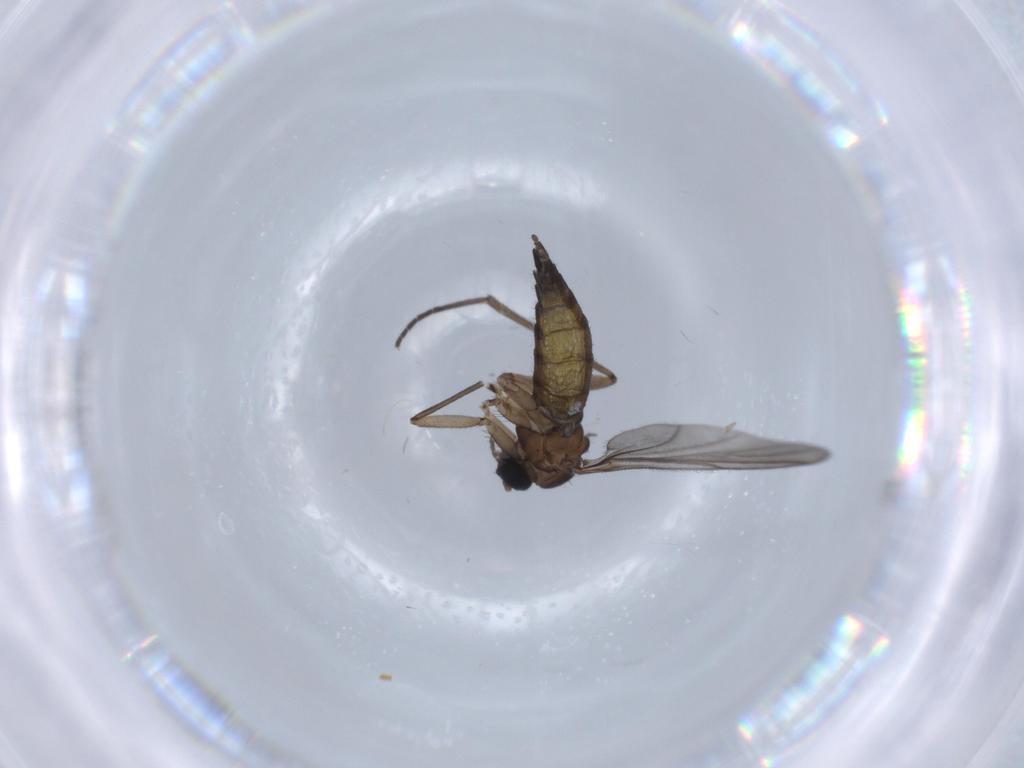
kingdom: Animalia
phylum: Arthropoda
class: Insecta
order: Diptera
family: Sciaridae
